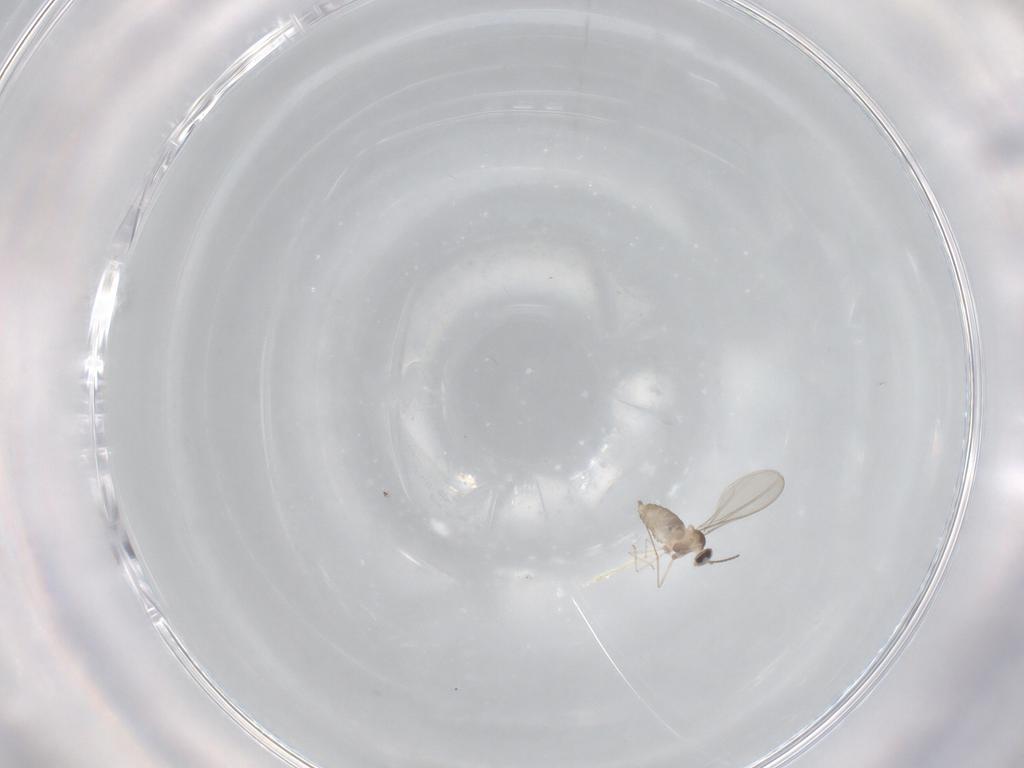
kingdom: Animalia
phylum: Arthropoda
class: Insecta
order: Diptera
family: Cecidomyiidae
